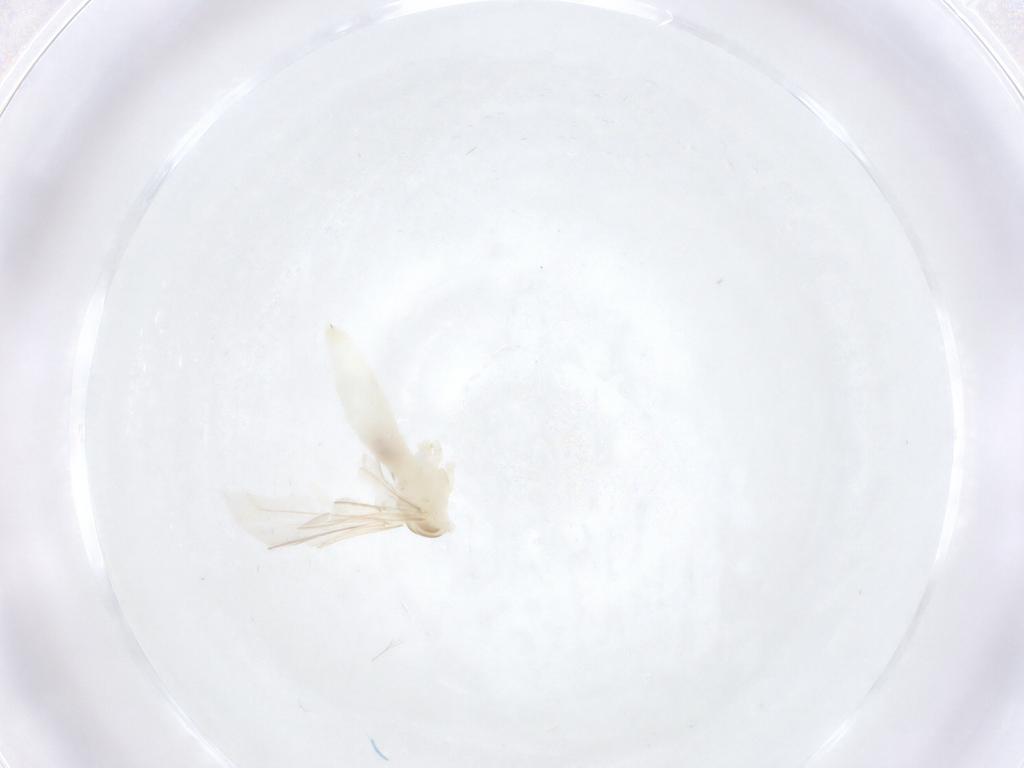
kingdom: Animalia
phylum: Arthropoda
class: Insecta
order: Diptera
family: Cecidomyiidae
